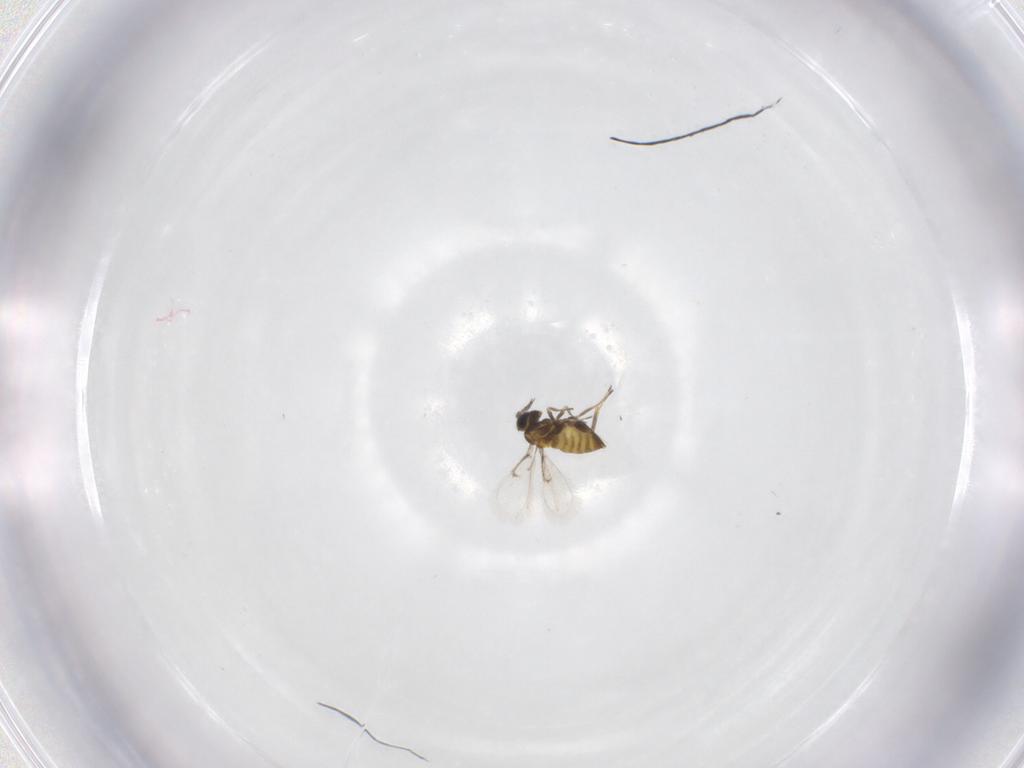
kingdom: Animalia
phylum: Arthropoda
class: Insecta
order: Hymenoptera
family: Trichogrammatidae
